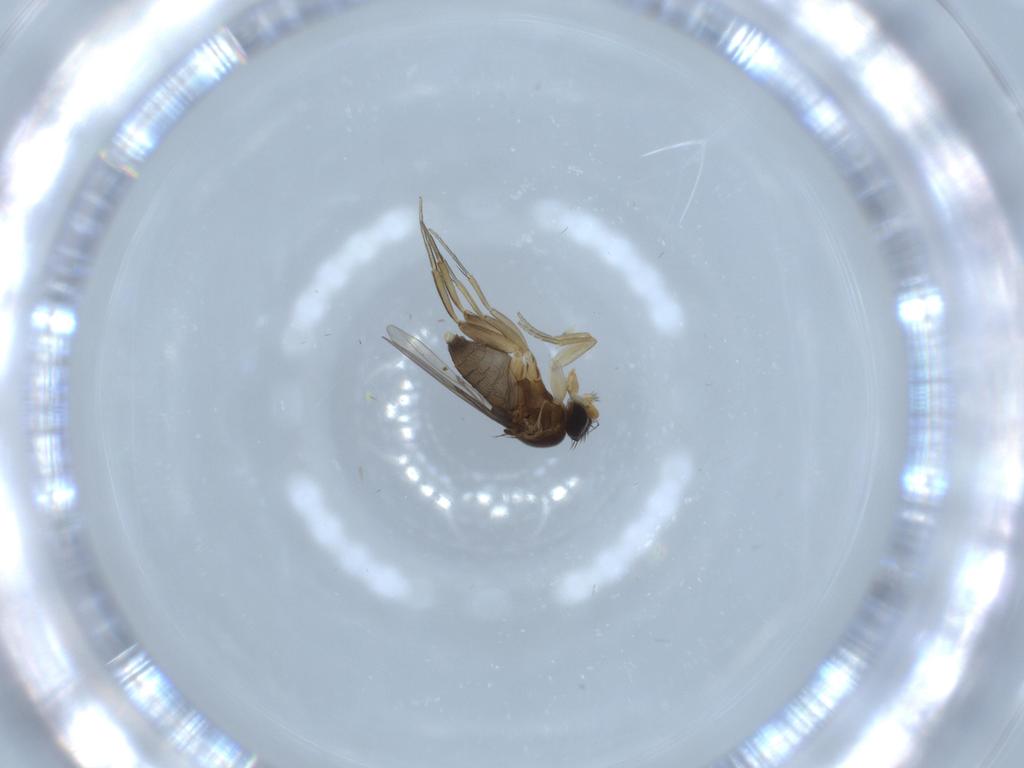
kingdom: Animalia
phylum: Arthropoda
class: Insecta
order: Diptera
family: Phoridae
